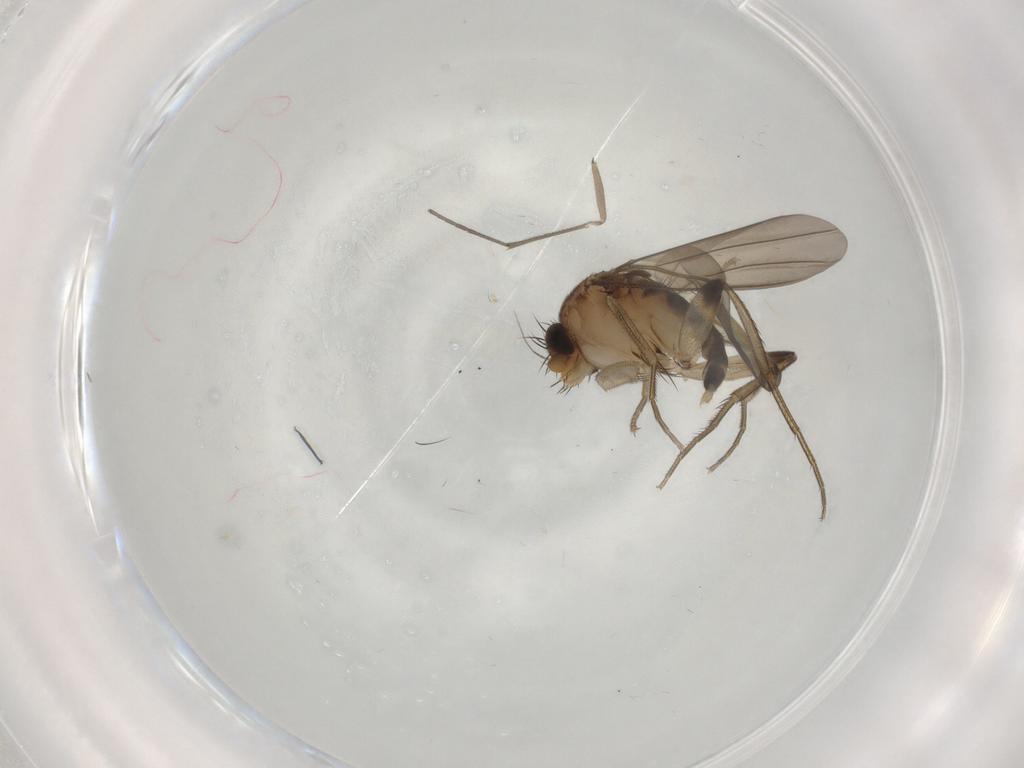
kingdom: Animalia
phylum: Arthropoda
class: Insecta
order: Diptera
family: Phoridae
